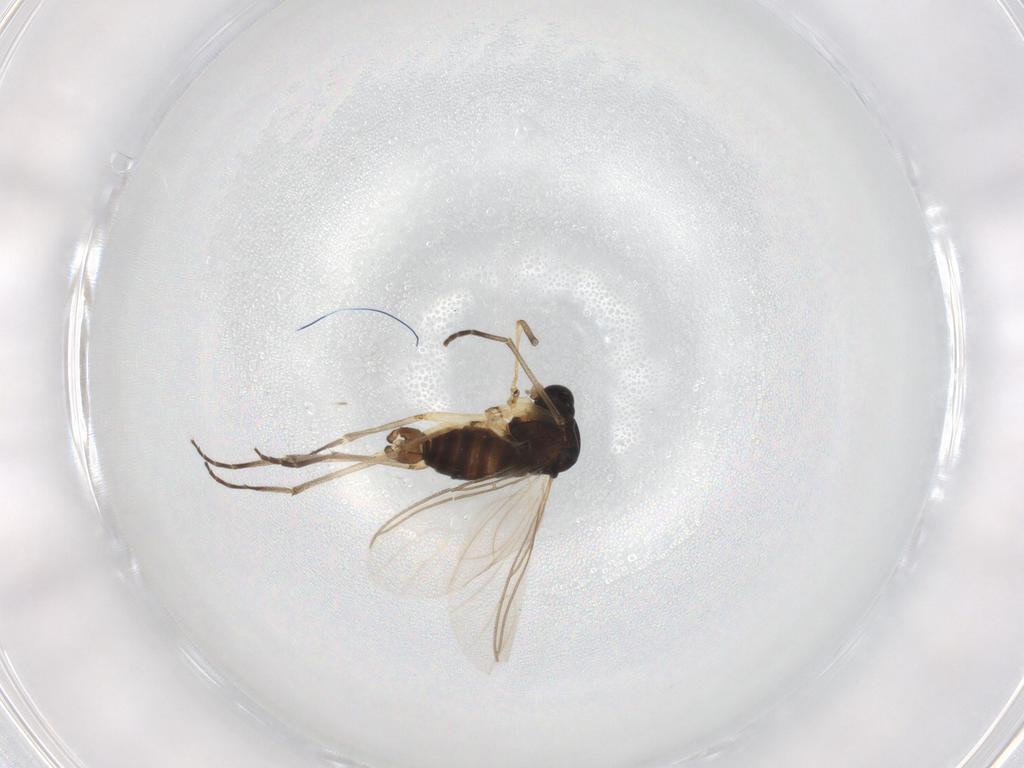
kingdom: Animalia
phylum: Arthropoda
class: Insecta
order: Diptera
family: Sciaridae
